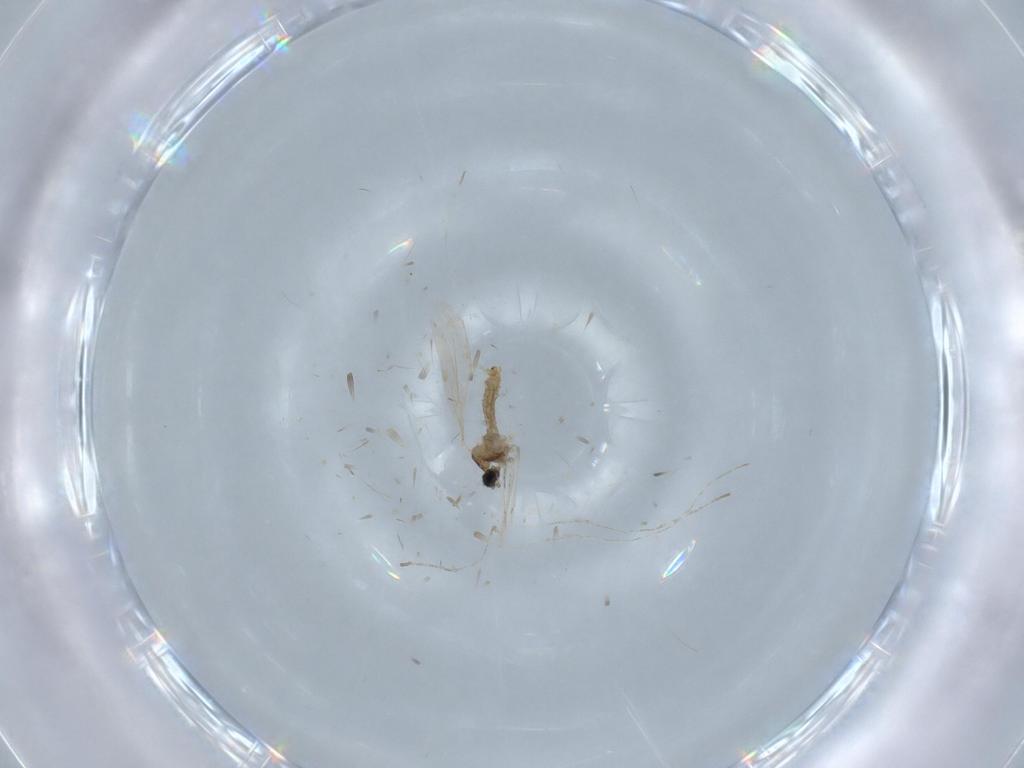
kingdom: Animalia
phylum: Arthropoda
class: Insecta
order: Diptera
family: Cecidomyiidae
